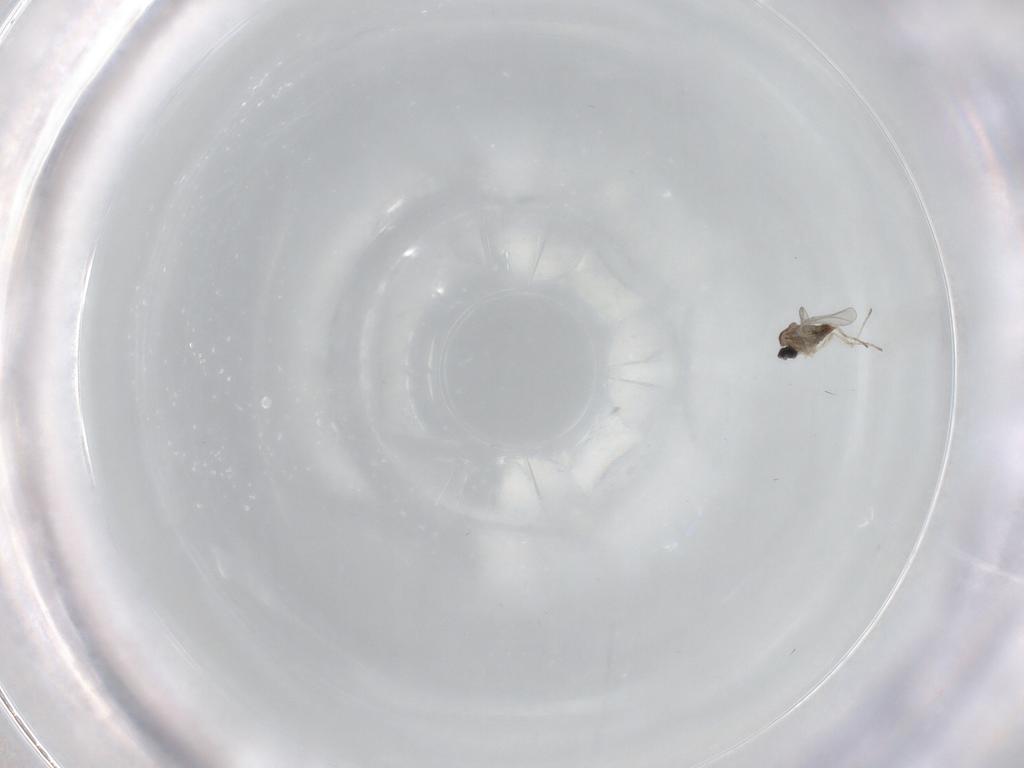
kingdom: Animalia
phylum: Arthropoda
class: Insecta
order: Diptera
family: Cecidomyiidae
